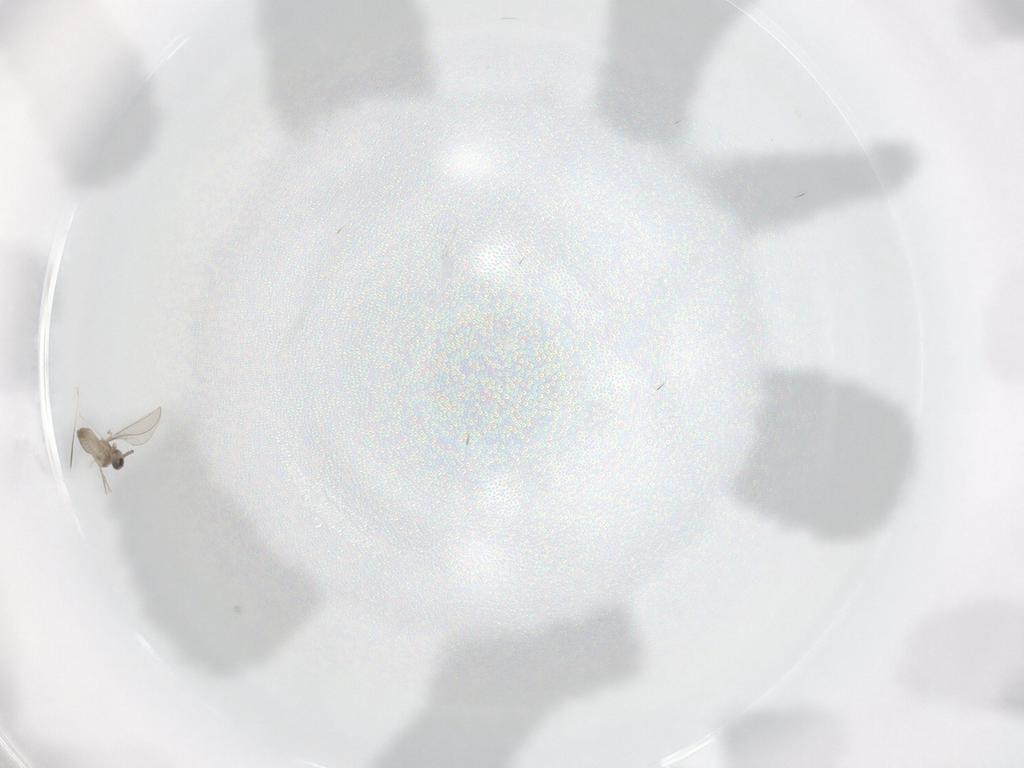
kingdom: Animalia
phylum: Arthropoda
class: Insecta
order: Diptera
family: Cecidomyiidae
